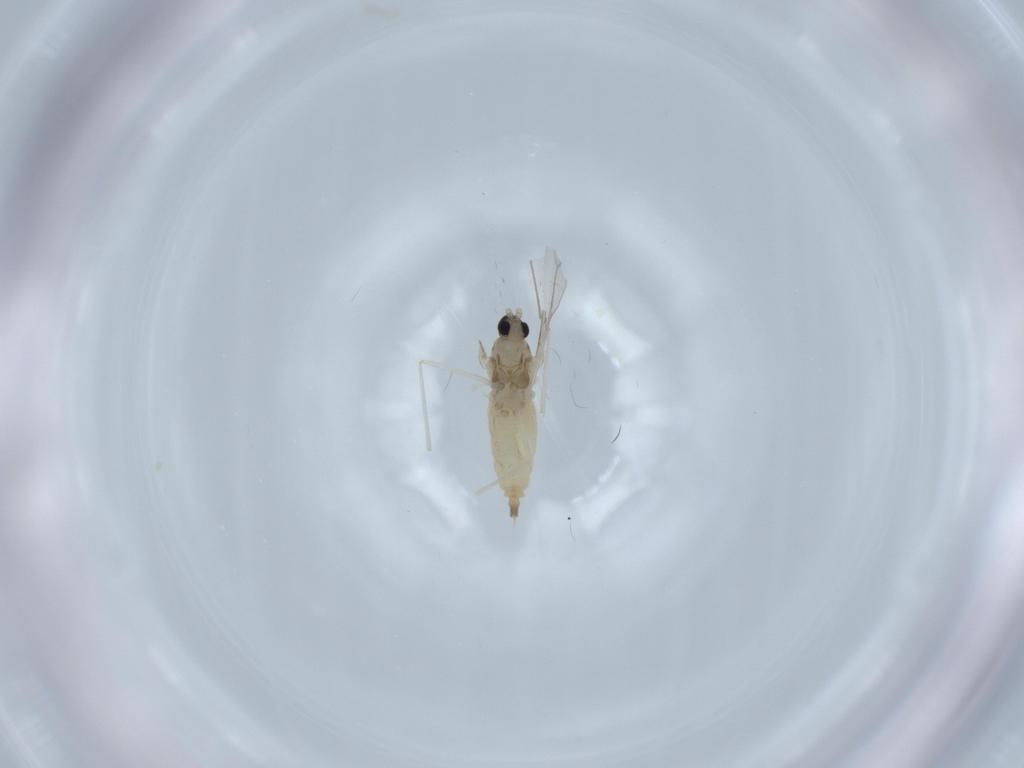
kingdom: Animalia
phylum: Arthropoda
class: Insecta
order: Diptera
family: Cecidomyiidae
